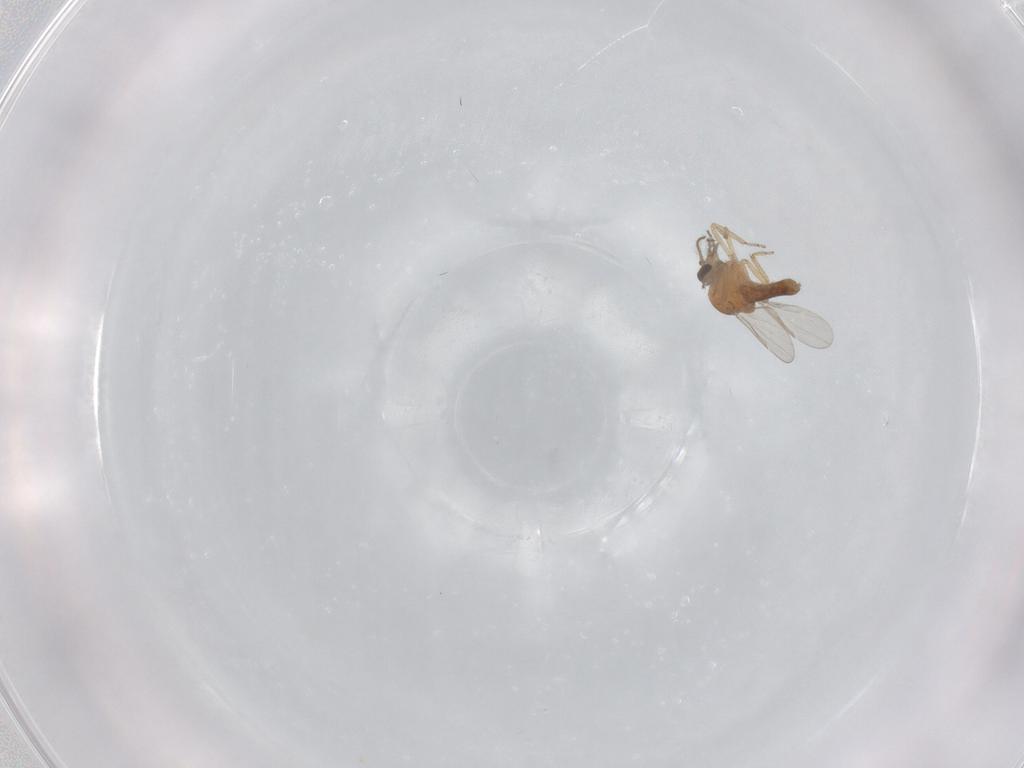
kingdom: Animalia
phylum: Arthropoda
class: Insecta
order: Diptera
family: Ceratopogonidae
